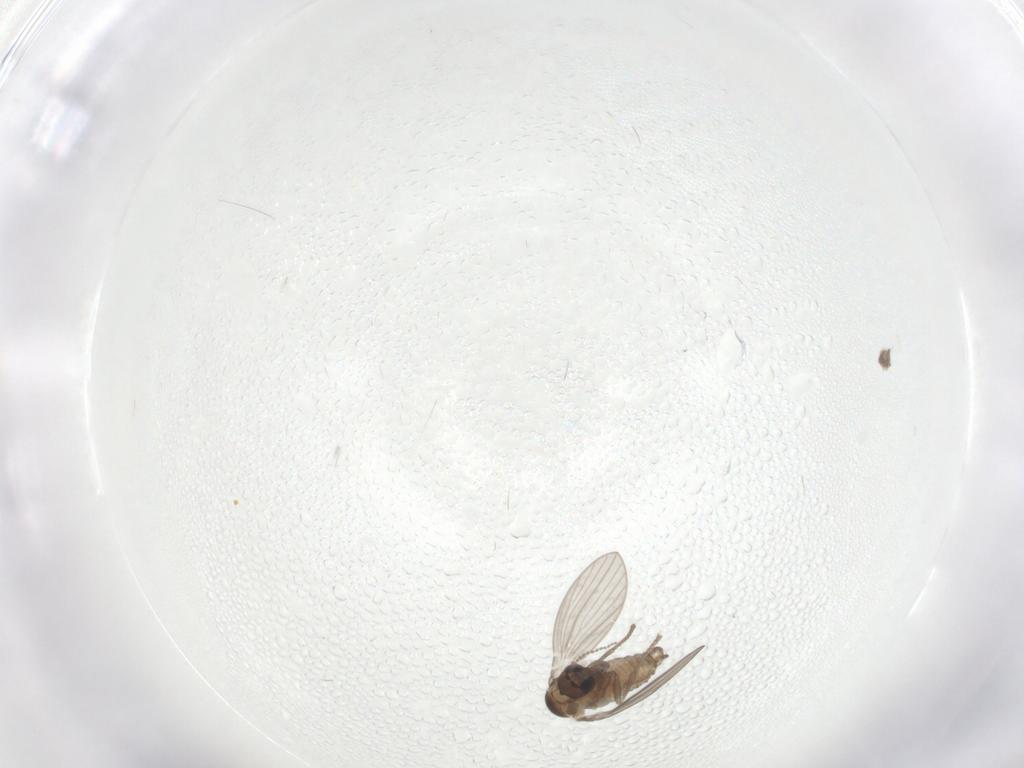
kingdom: Animalia
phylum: Arthropoda
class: Insecta
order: Diptera
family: Psychodidae
